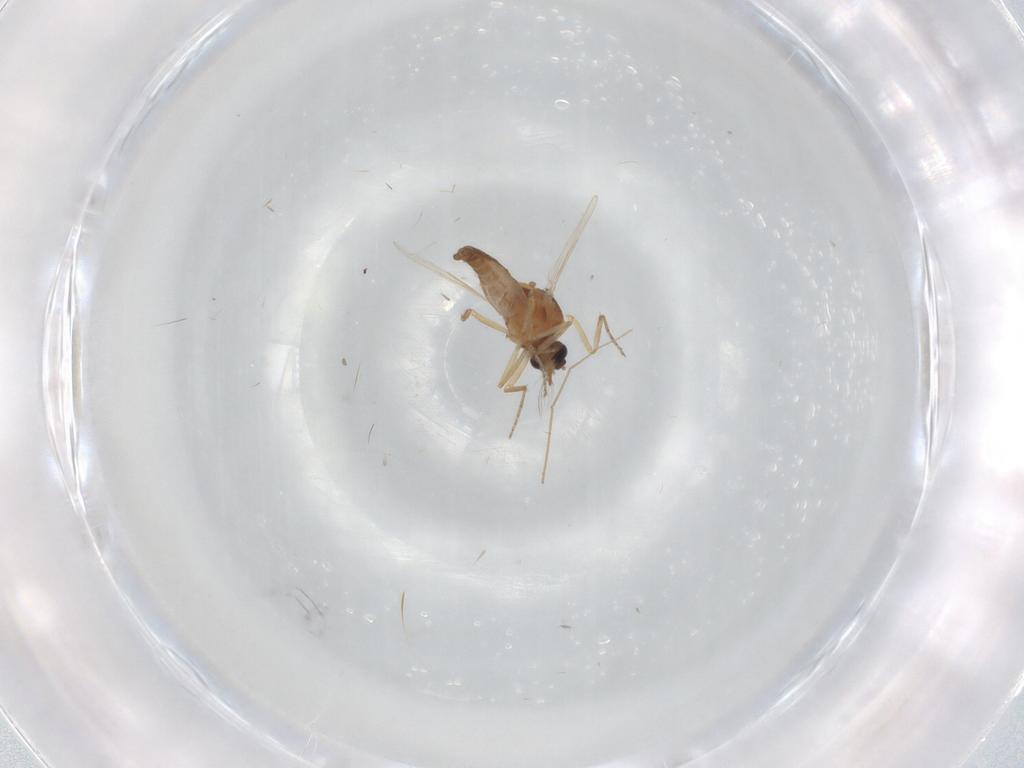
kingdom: Animalia
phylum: Arthropoda
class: Insecta
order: Diptera
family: Ceratopogonidae
